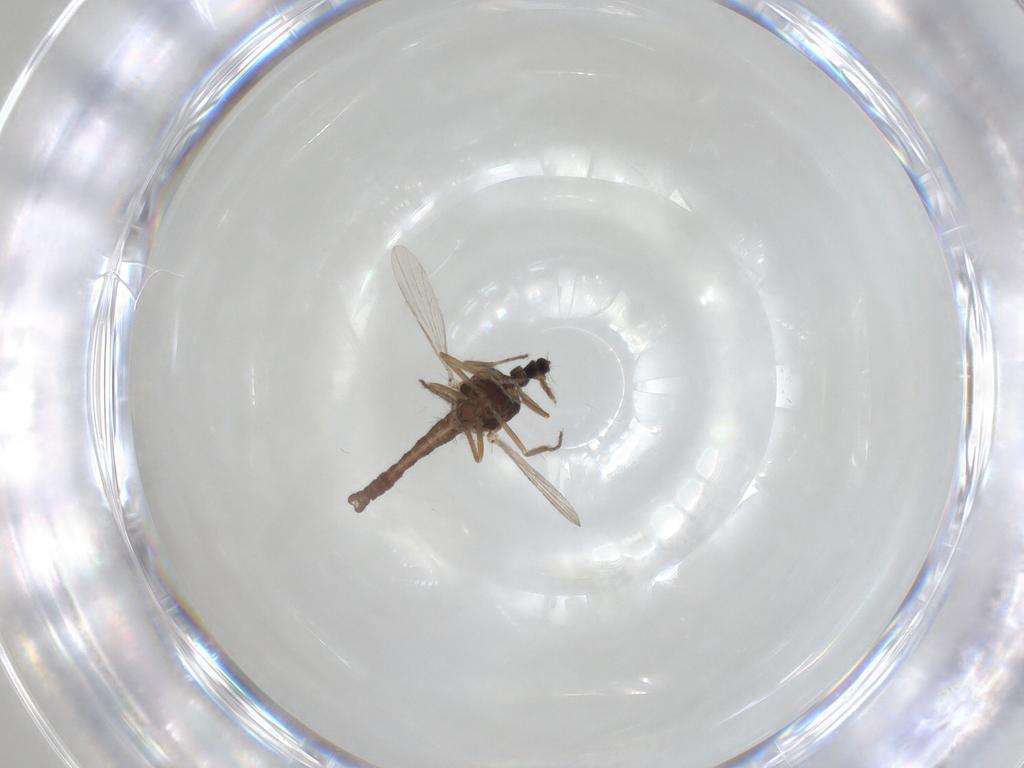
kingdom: Animalia
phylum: Arthropoda
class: Insecta
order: Diptera
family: Ceratopogonidae
